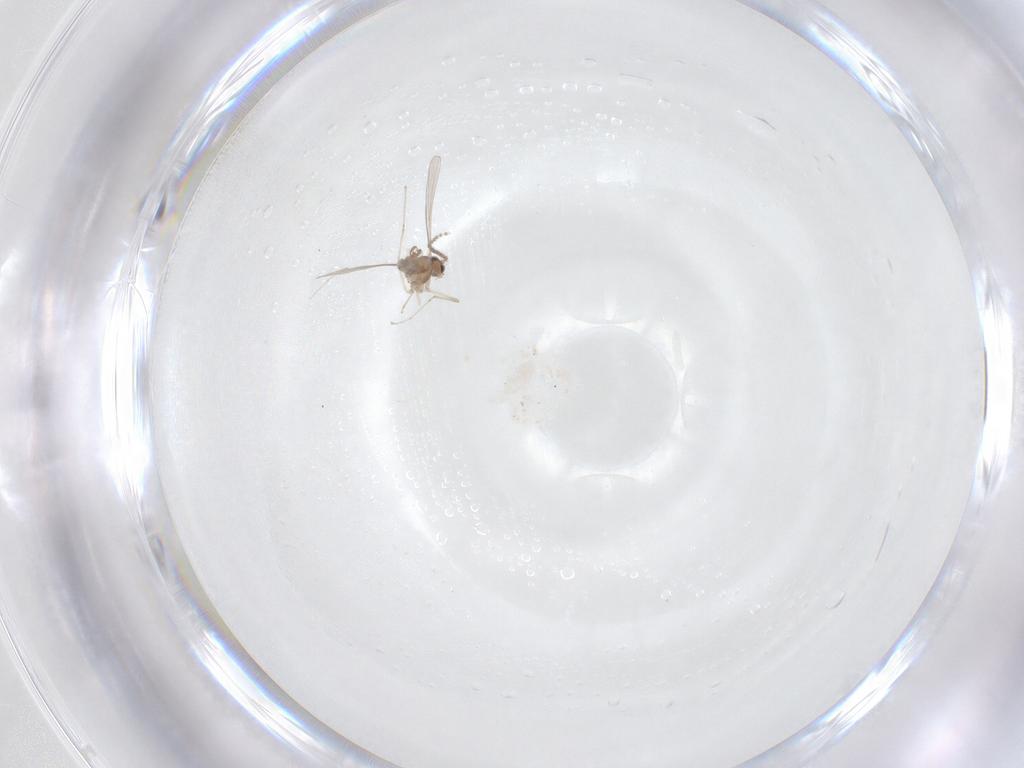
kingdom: Animalia
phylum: Arthropoda
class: Insecta
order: Diptera
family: Cecidomyiidae
